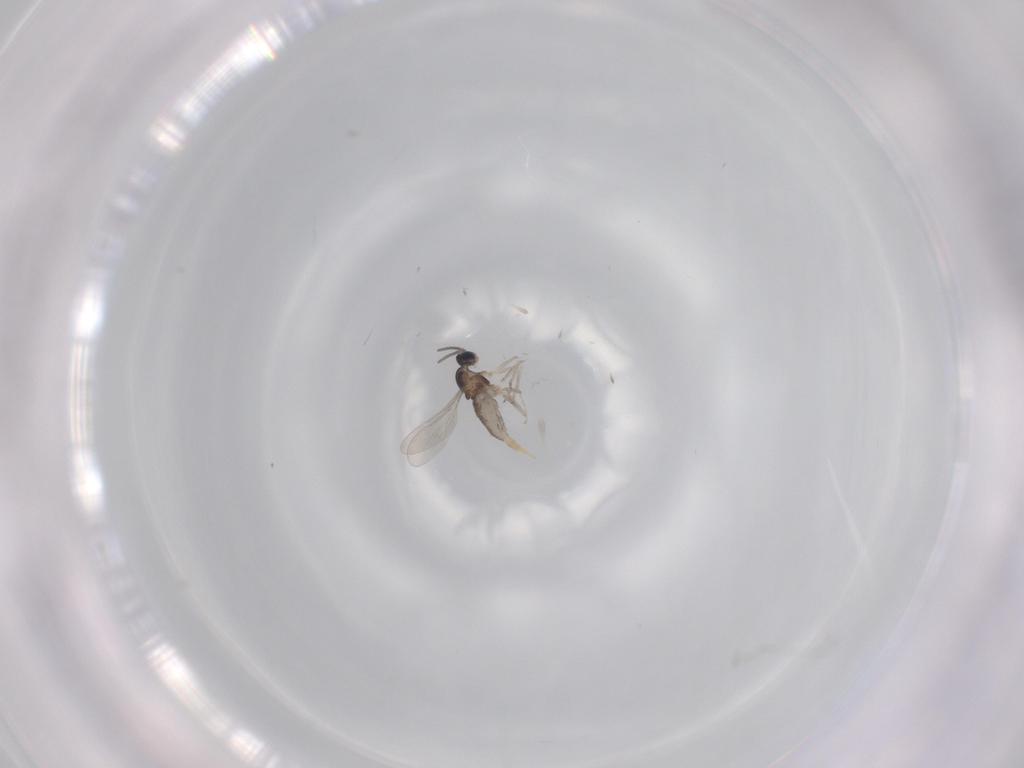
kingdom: Animalia
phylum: Arthropoda
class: Insecta
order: Diptera
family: Cecidomyiidae
